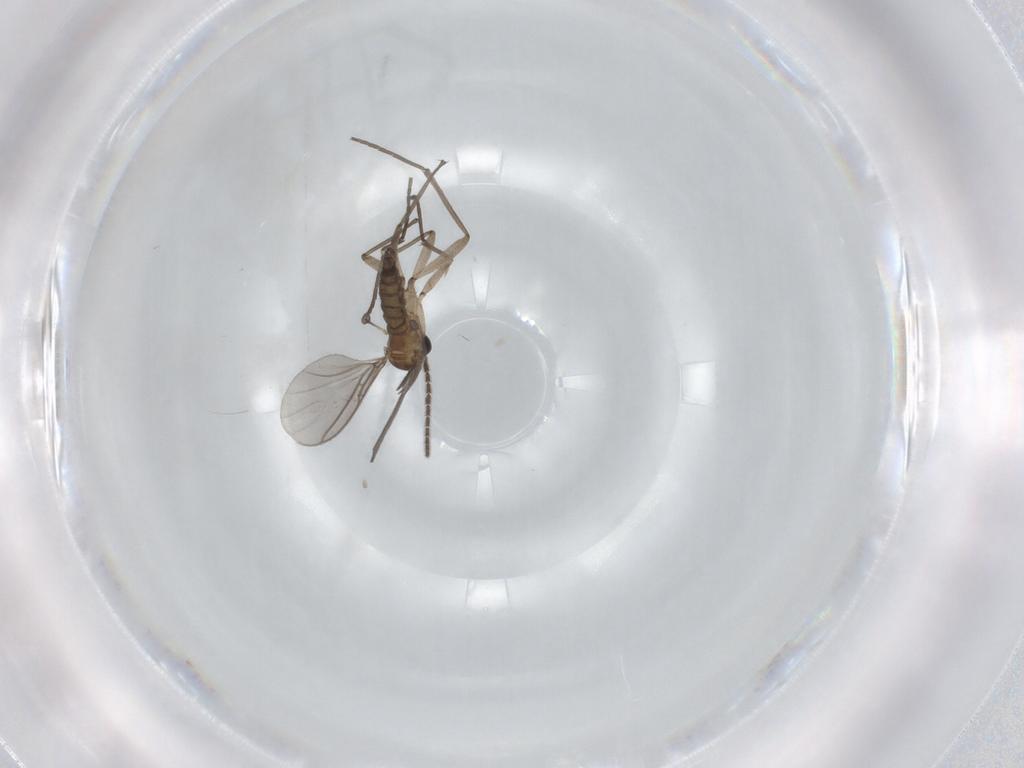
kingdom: Animalia
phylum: Arthropoda
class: Insecta
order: Diptera
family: Sciaridae
